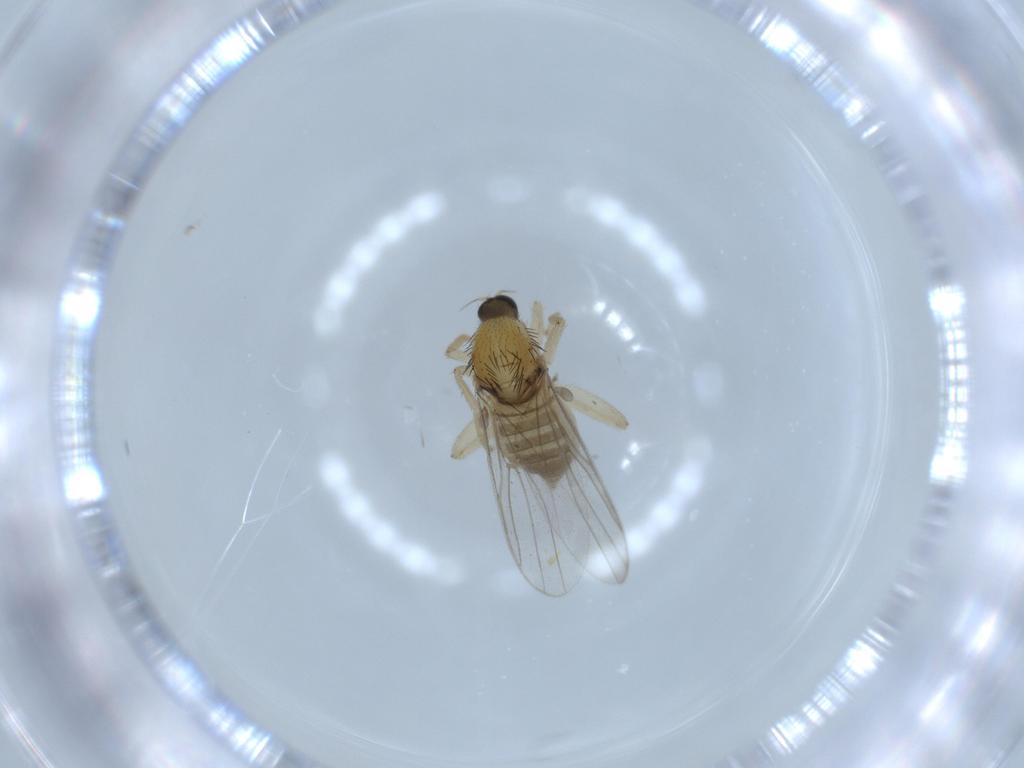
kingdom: Animalia
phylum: Arthropoda
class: Insecta
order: Diptera
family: Hybotidae
